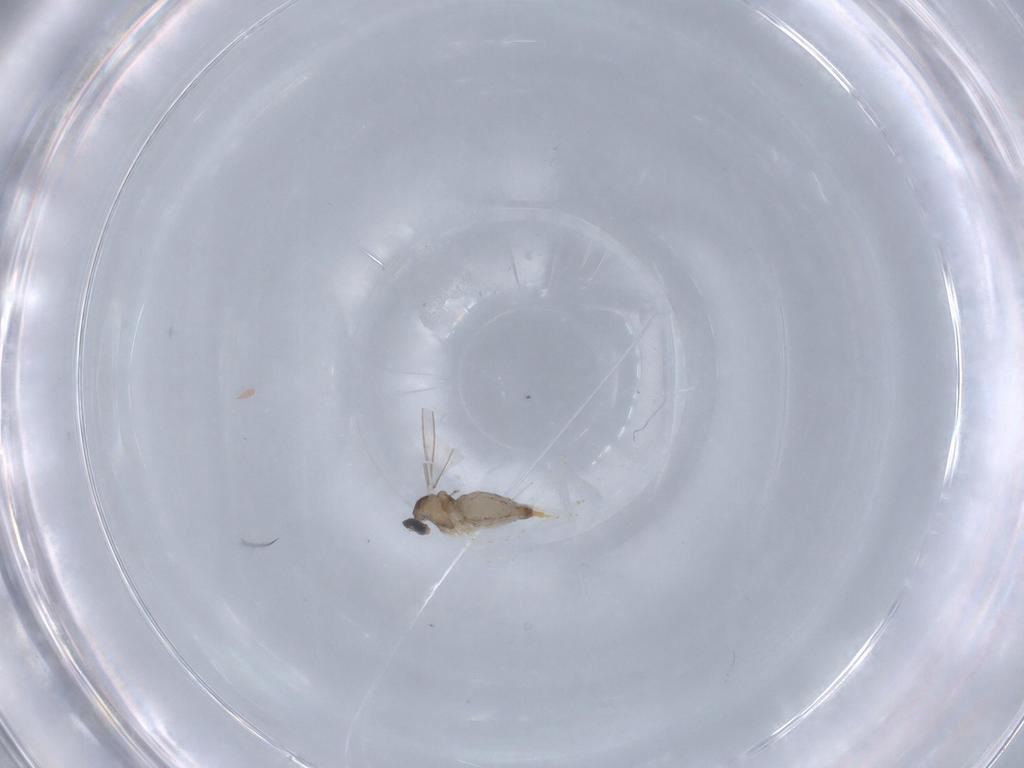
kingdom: Animalia
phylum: Arthropoda
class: Insecta
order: Diptera
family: Cecidomyiidae
